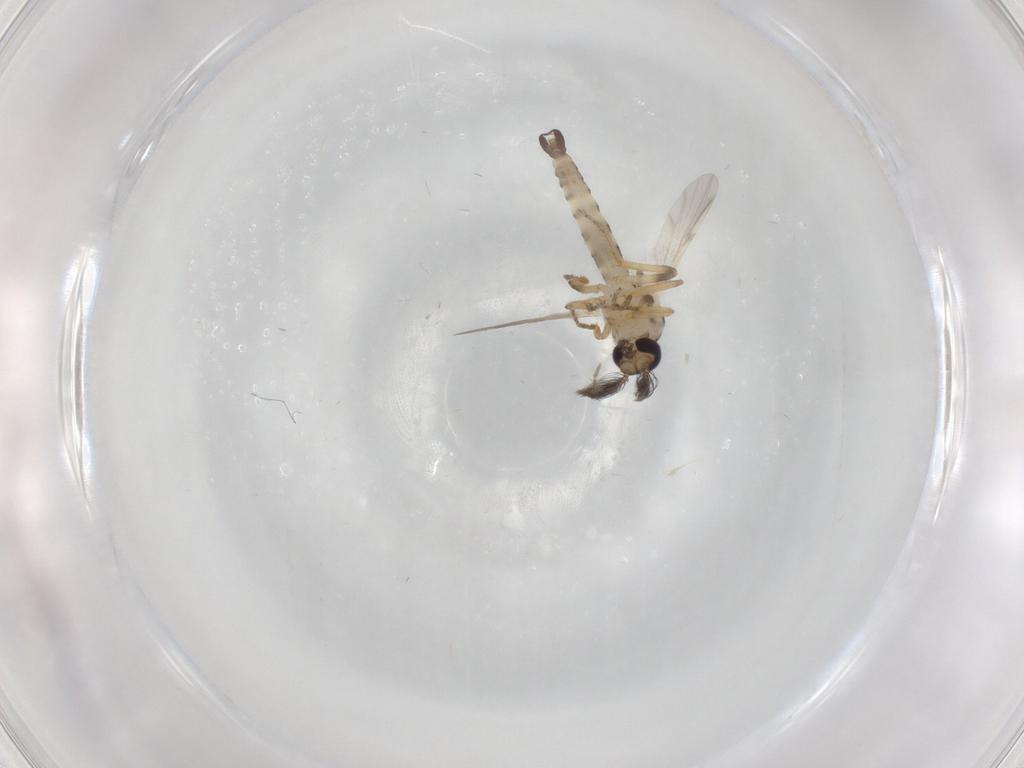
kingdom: Animalia
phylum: Arthropoda
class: Insecta
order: Diptera
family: Ceratopogonidae
